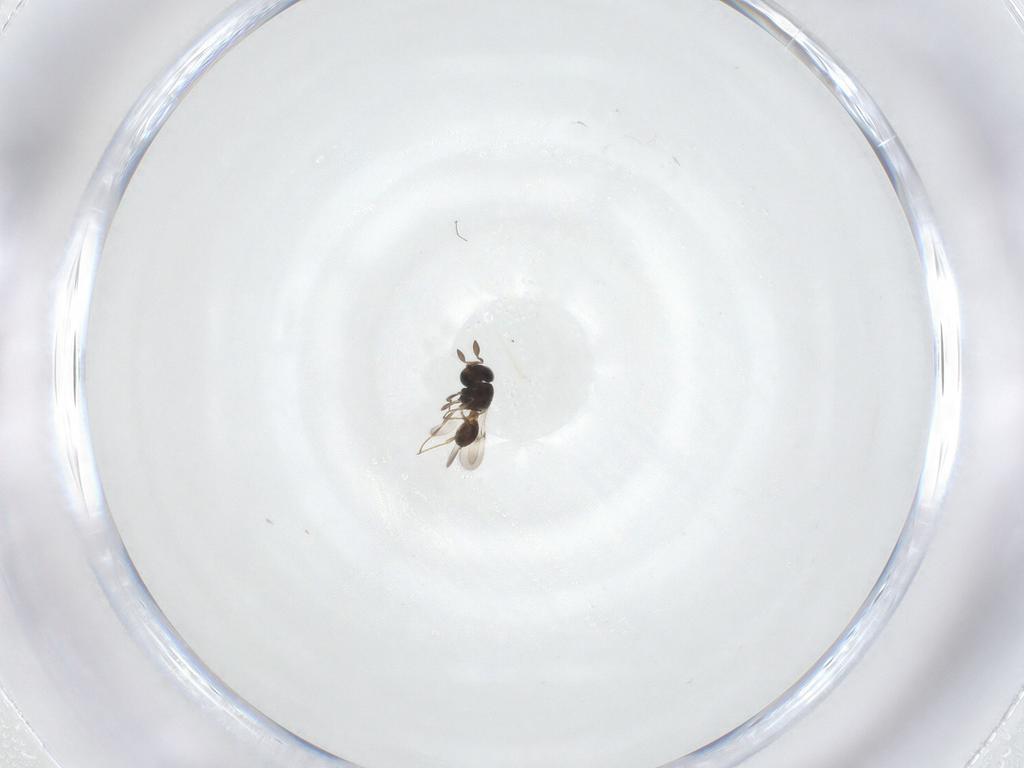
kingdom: Animalia
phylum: Arthropoda
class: Insecta
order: Hymenoptera
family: Scelionidae
